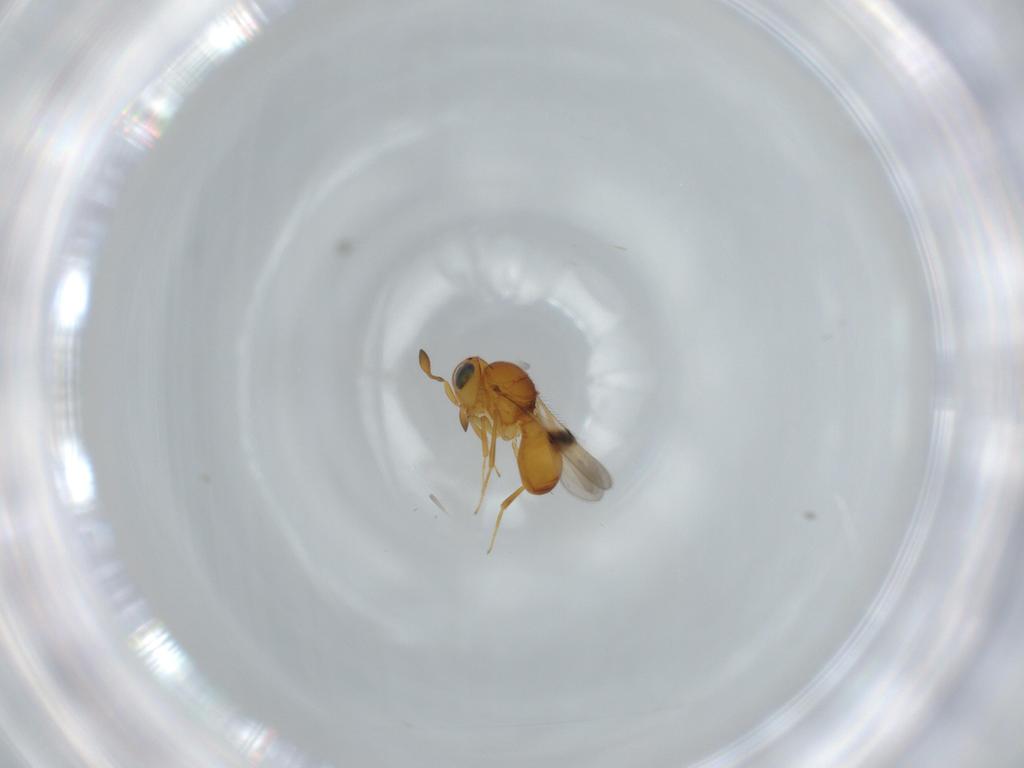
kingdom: Animalia
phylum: Arthropoda
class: Insecta
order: Hymenoptera
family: Scelionidae
